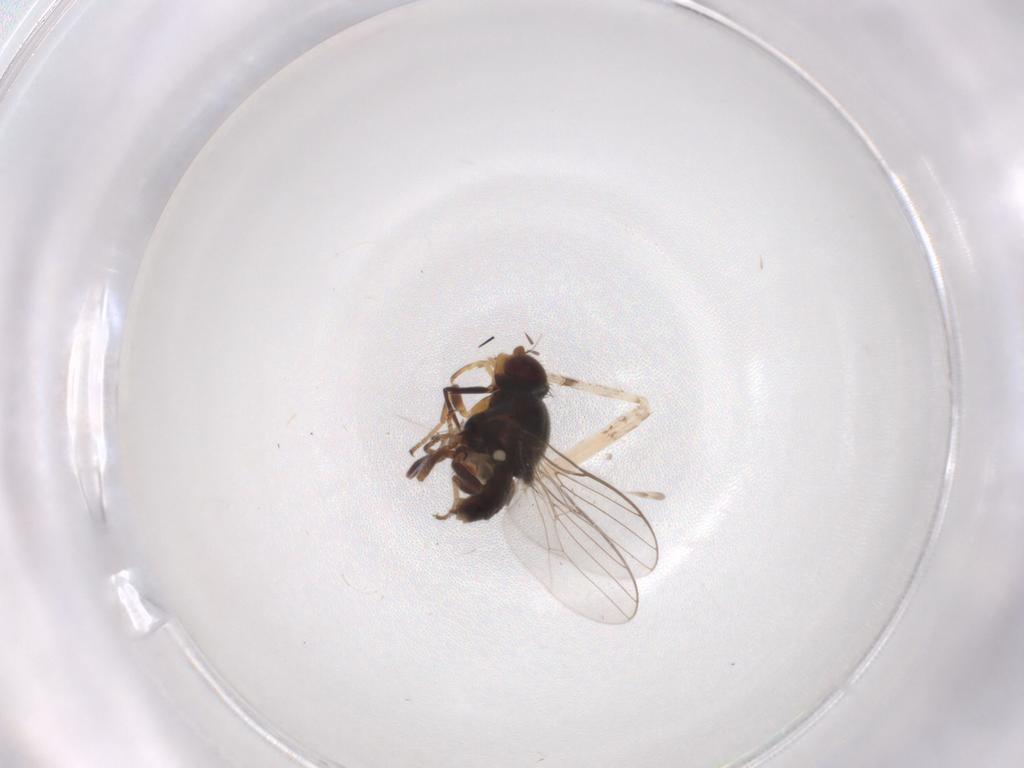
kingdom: Animalia
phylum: Arthropoda
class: Insecta
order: Diptera
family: Chloropidae
